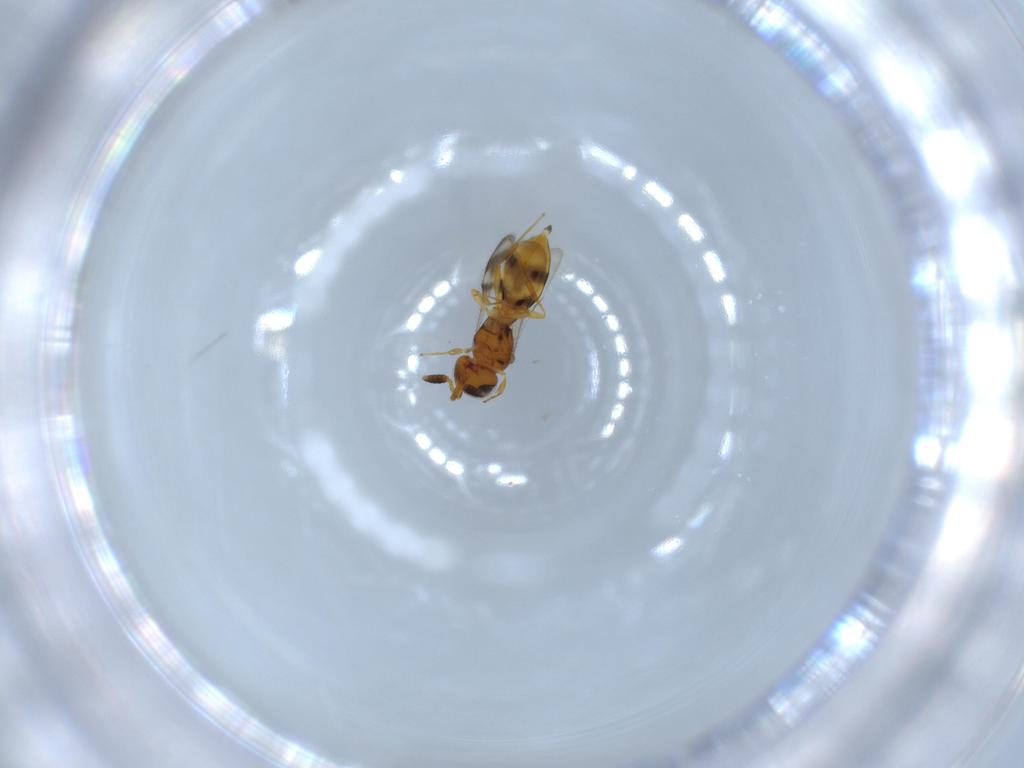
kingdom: Animalia
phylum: Arthropoda
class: Insecta
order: Hymenoptera
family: Scelionidae
